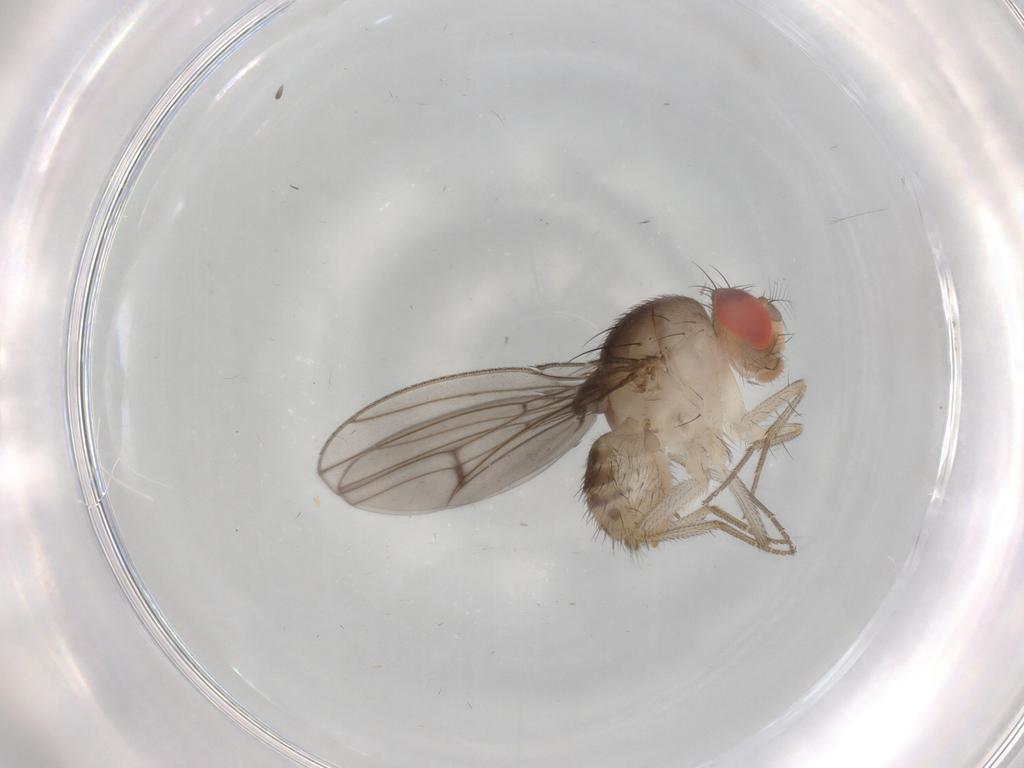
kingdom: Animalia
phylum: Arthropoda
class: Insecta
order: Diptera
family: Drosophilidae
